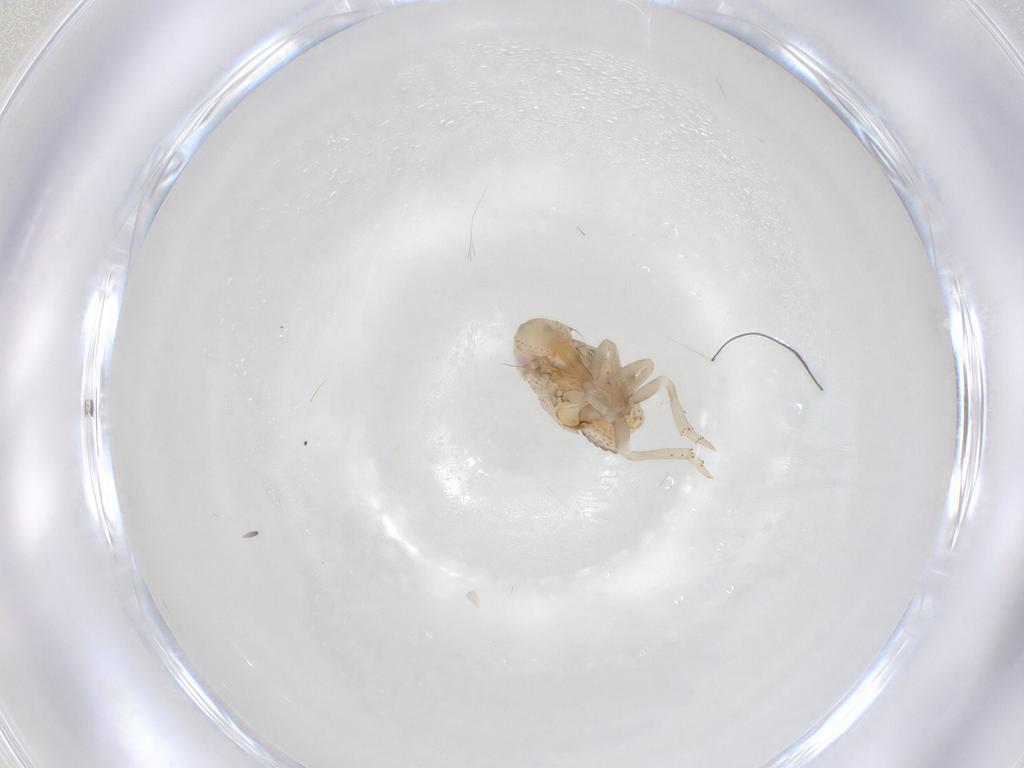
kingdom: Animalia
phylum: Arthropoda
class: Insecta
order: Hemiptera
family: Flatidae
